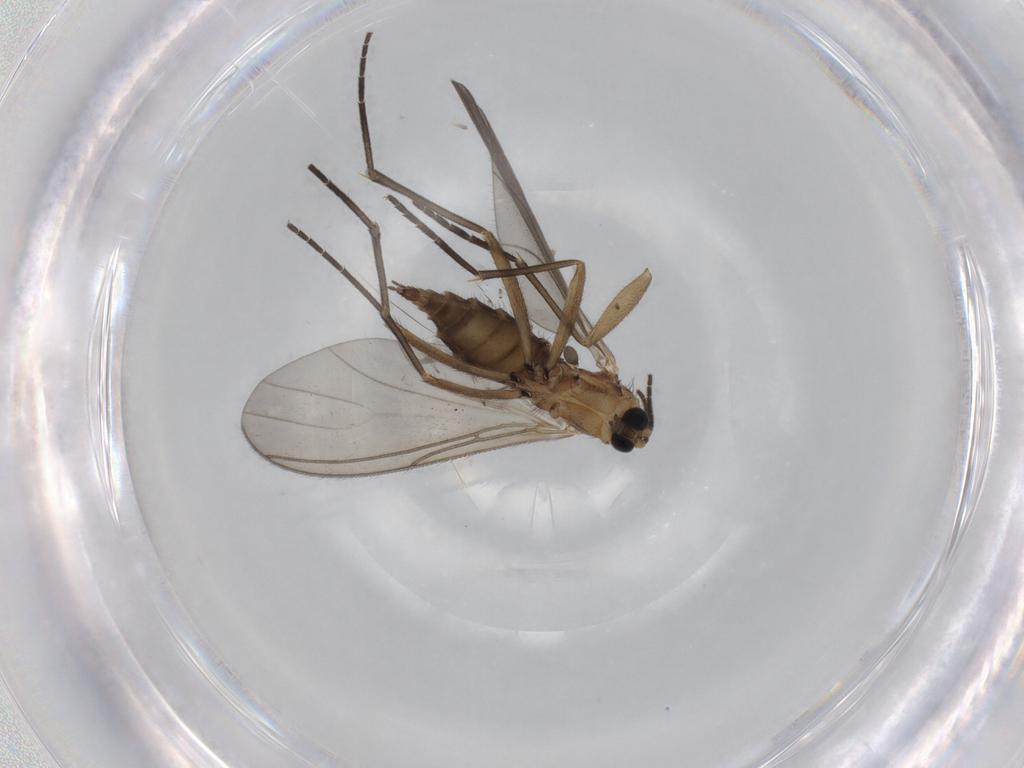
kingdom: Animalia
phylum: Arthropoda
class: Insecta
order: Diptera
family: Sciaridae
